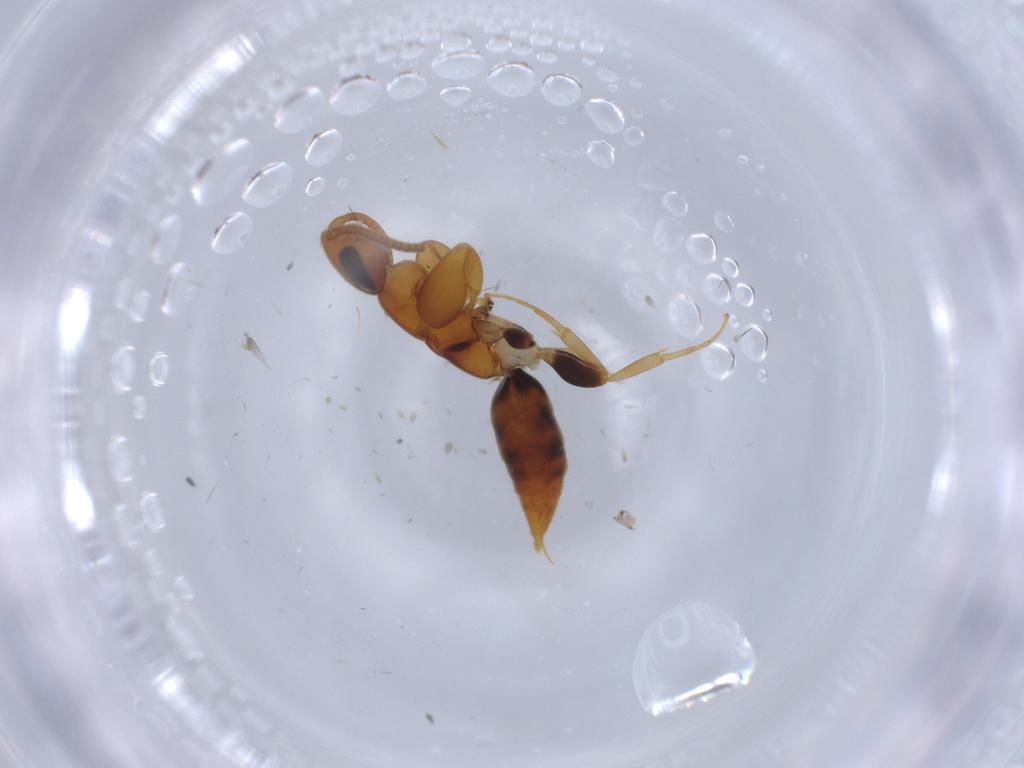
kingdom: Animalia
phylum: Arthropoda
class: Insecta
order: Hymenoptera
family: Sclerogibbidae
